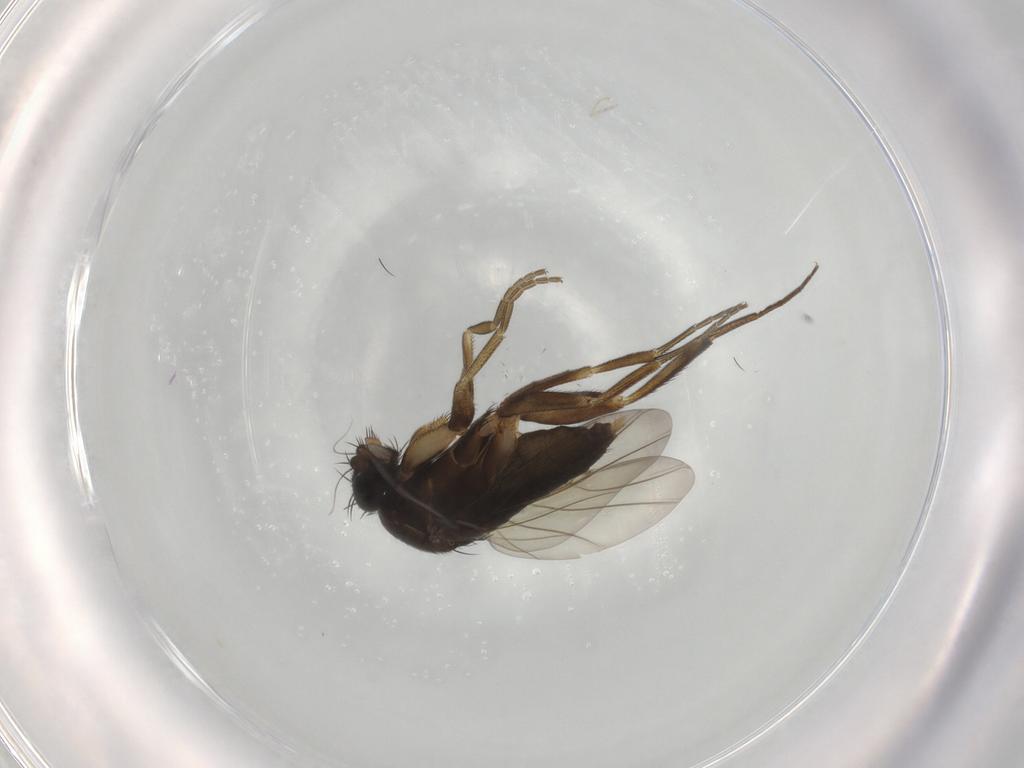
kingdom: Animalia
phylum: Arthropoda
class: Insecta
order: Diptera
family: Phoridae
